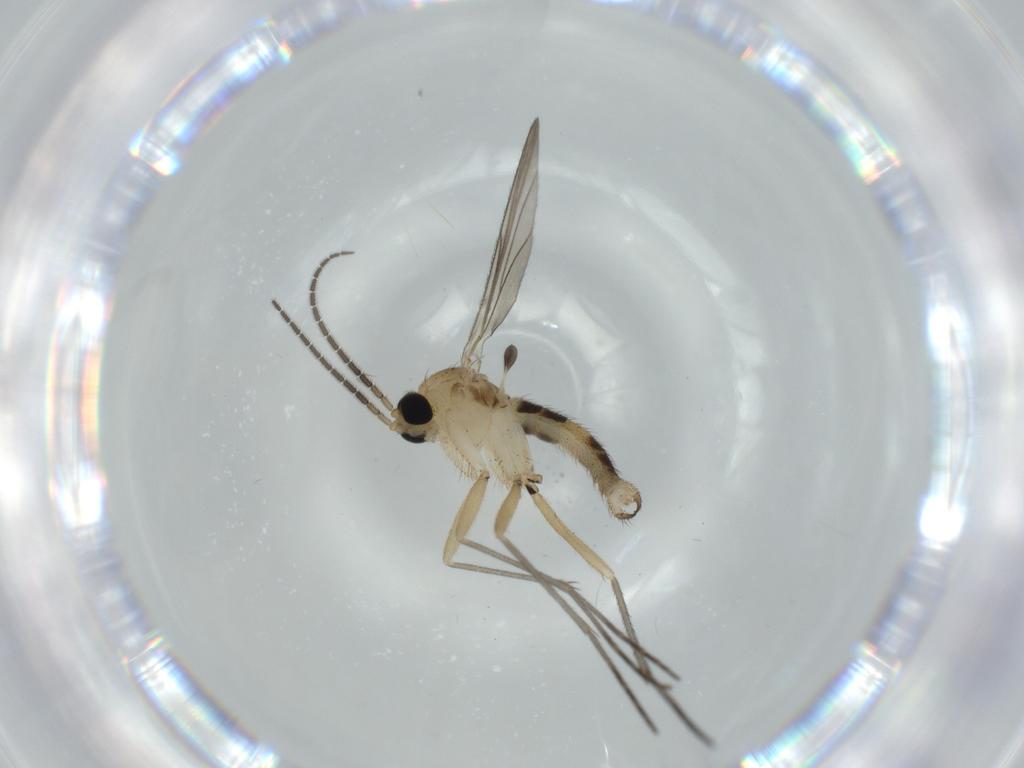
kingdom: Animalia
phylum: Arthropoda
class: Insecta
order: Diptera
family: Sciaridae
